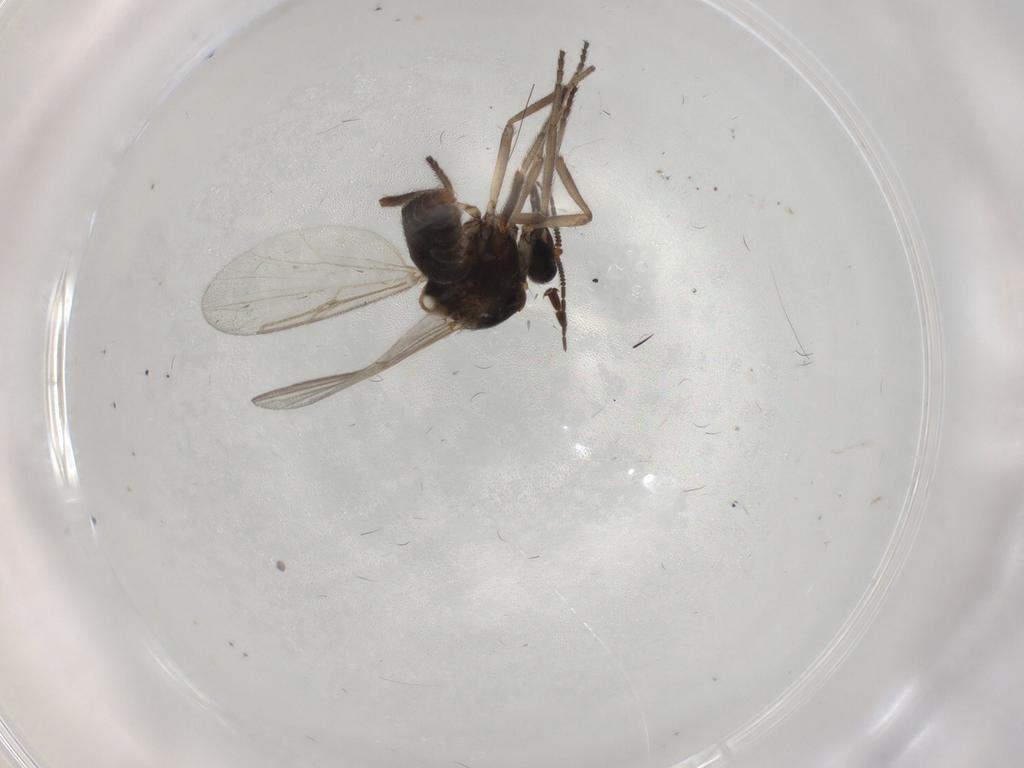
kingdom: Animalia
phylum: Arthropoda
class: Insecta
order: Diptera
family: Ceratopogonidae
